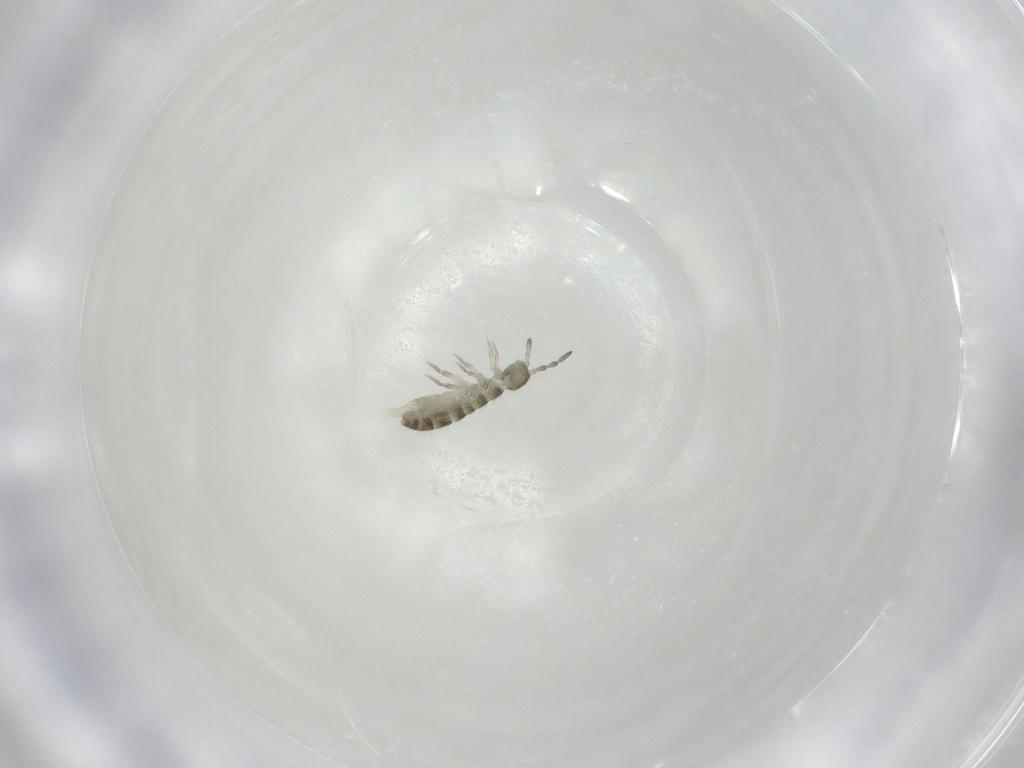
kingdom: Animalia
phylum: Arthropoda
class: Collembola
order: Entomobryomorpha
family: Isotomidae
